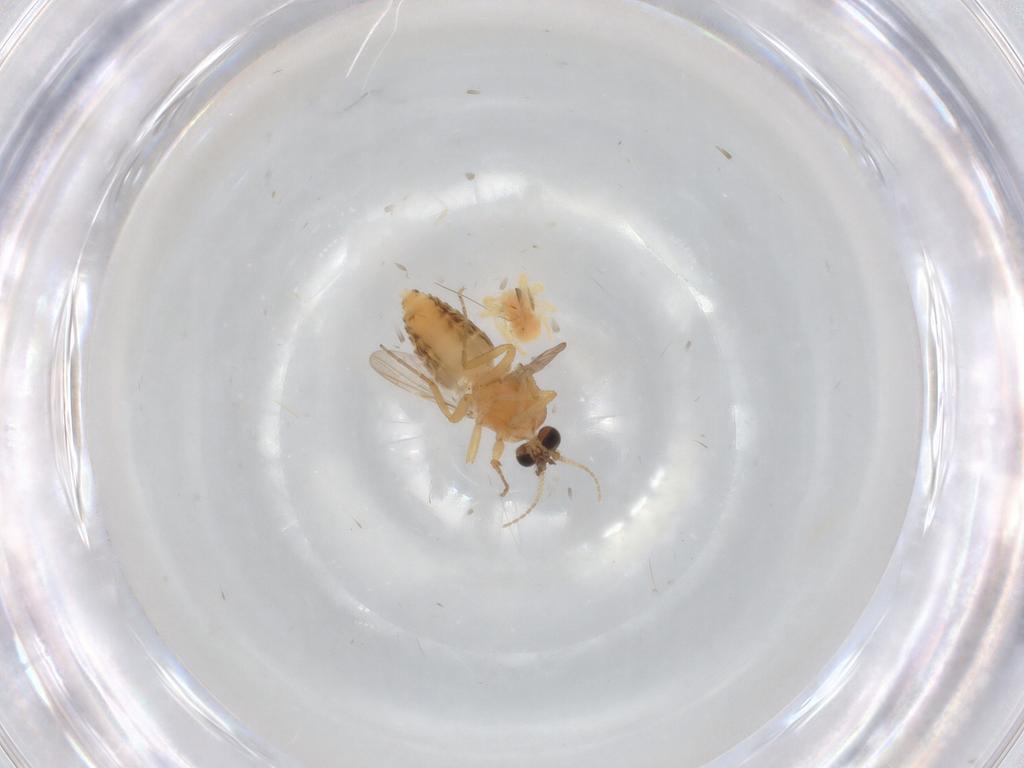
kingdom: Animalia
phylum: Arthropoda
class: Insecta
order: Diptera
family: Ceratopogonidae
